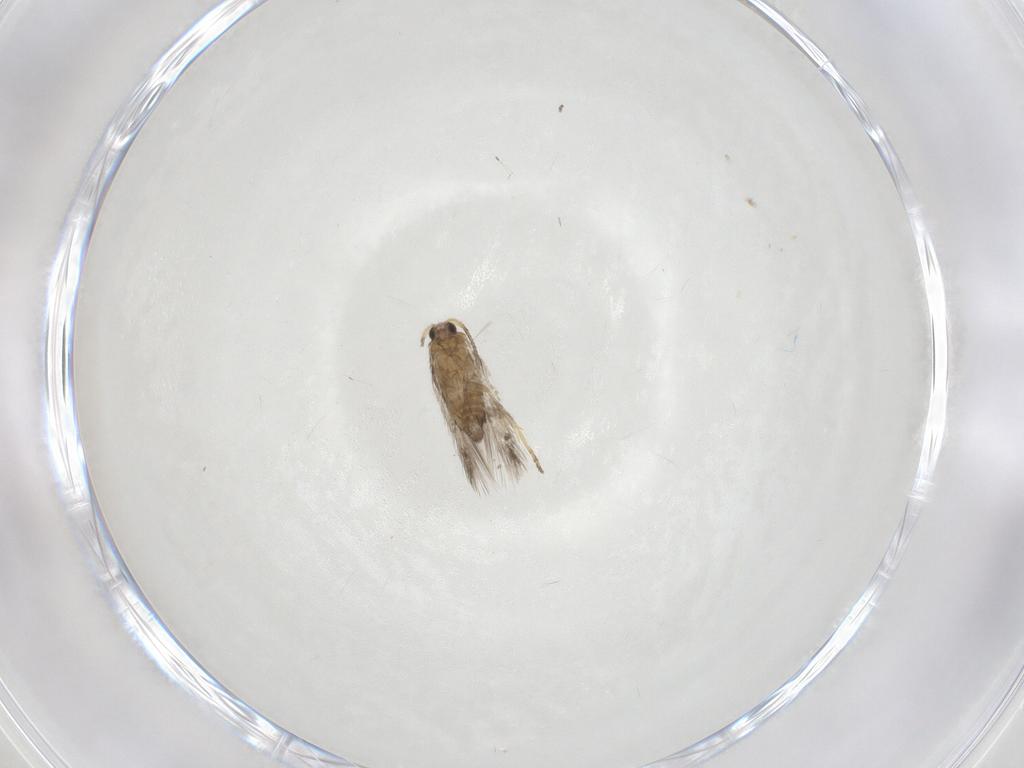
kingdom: Animalia
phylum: Arthropoda
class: Insecta
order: Lepidoptera
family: Nepticulidae
